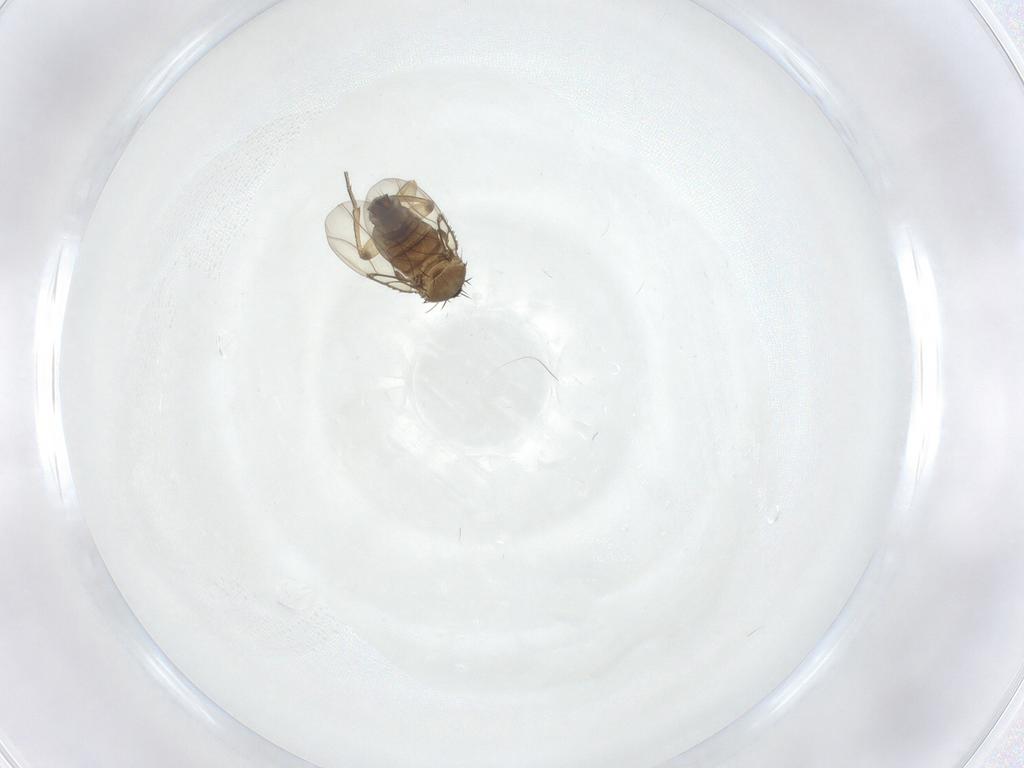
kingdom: Animalia
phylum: Arthropoda
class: Insecta
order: Diptera
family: Phoridae
